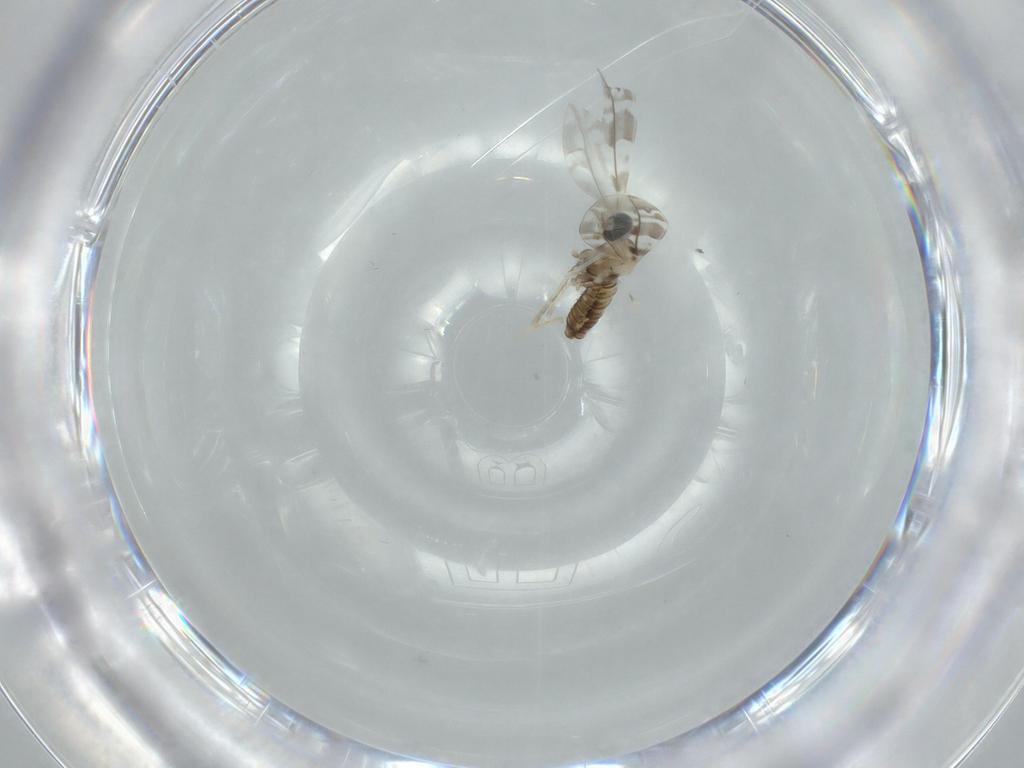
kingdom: Animalia
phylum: Arthropoda
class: Insecta
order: Diptera
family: Cecidomyiidae
